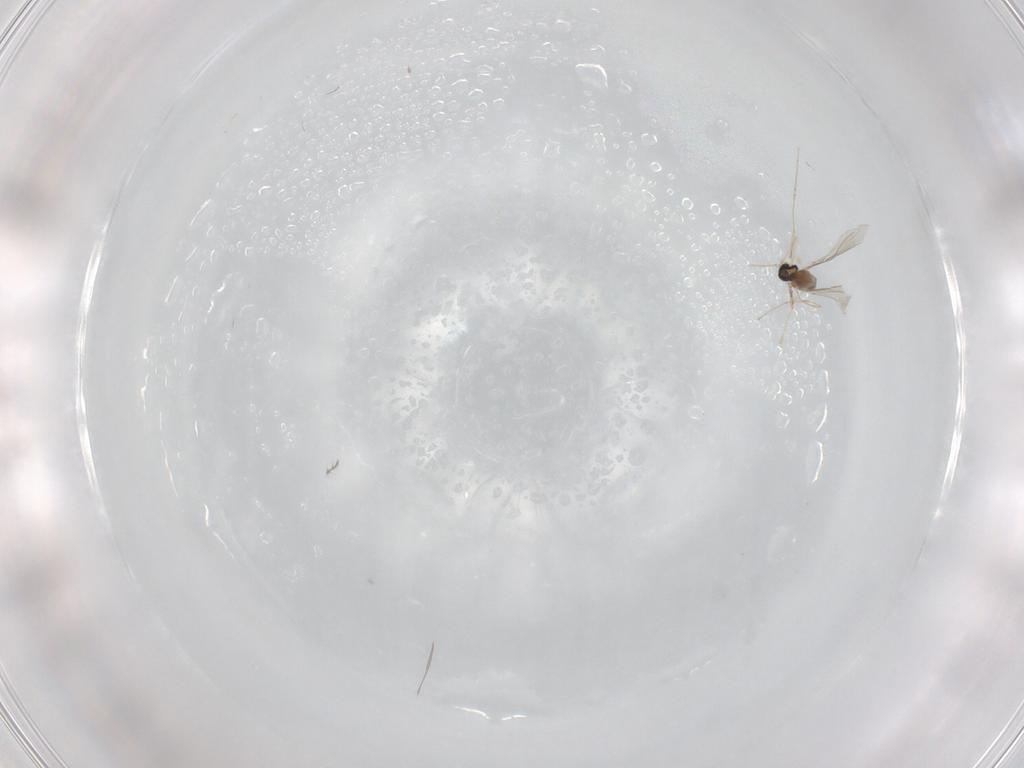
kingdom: Animalia
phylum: Arthropoda
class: Insecta
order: Diptera
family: Chironomidae
